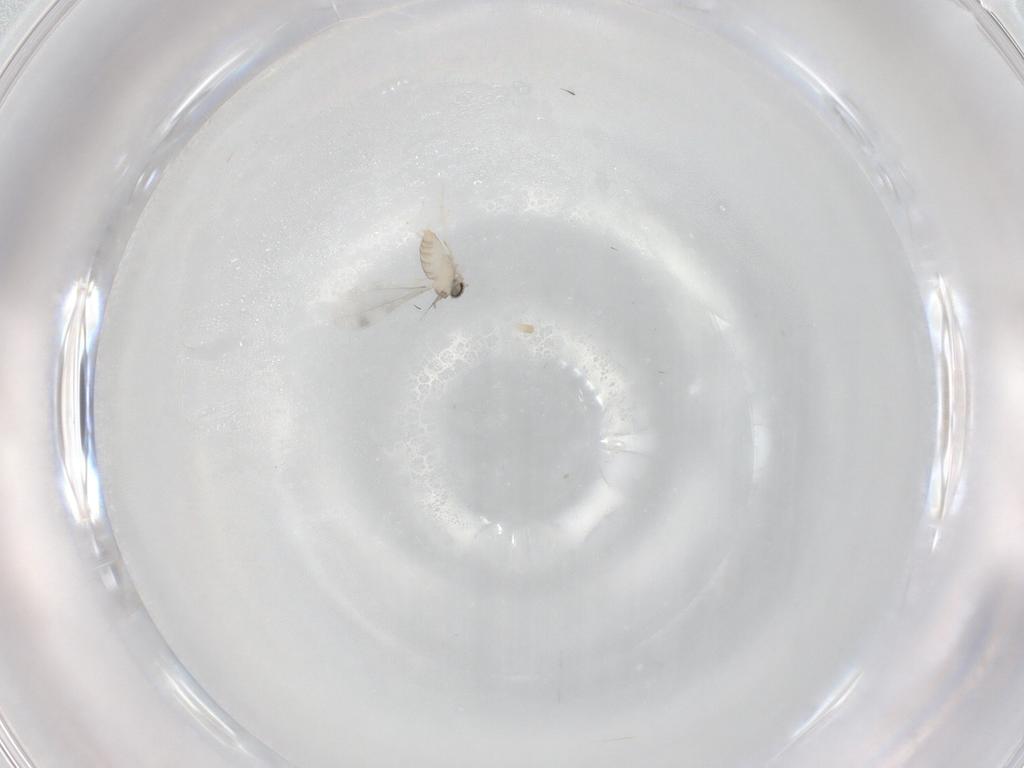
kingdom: Animalia
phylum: Arthropoda
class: Insecta
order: Diptera
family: Cecidomyiidae
